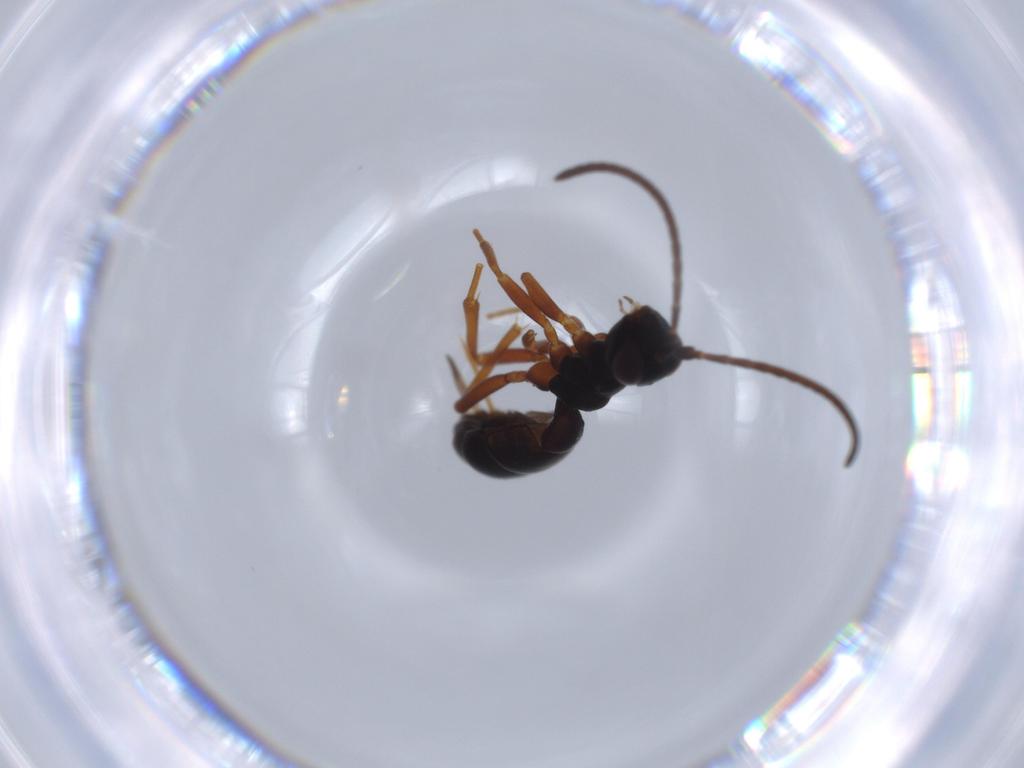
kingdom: Animalia
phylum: Arthropoda
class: Insecta
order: Hymenoptera
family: Ichneumonidae
